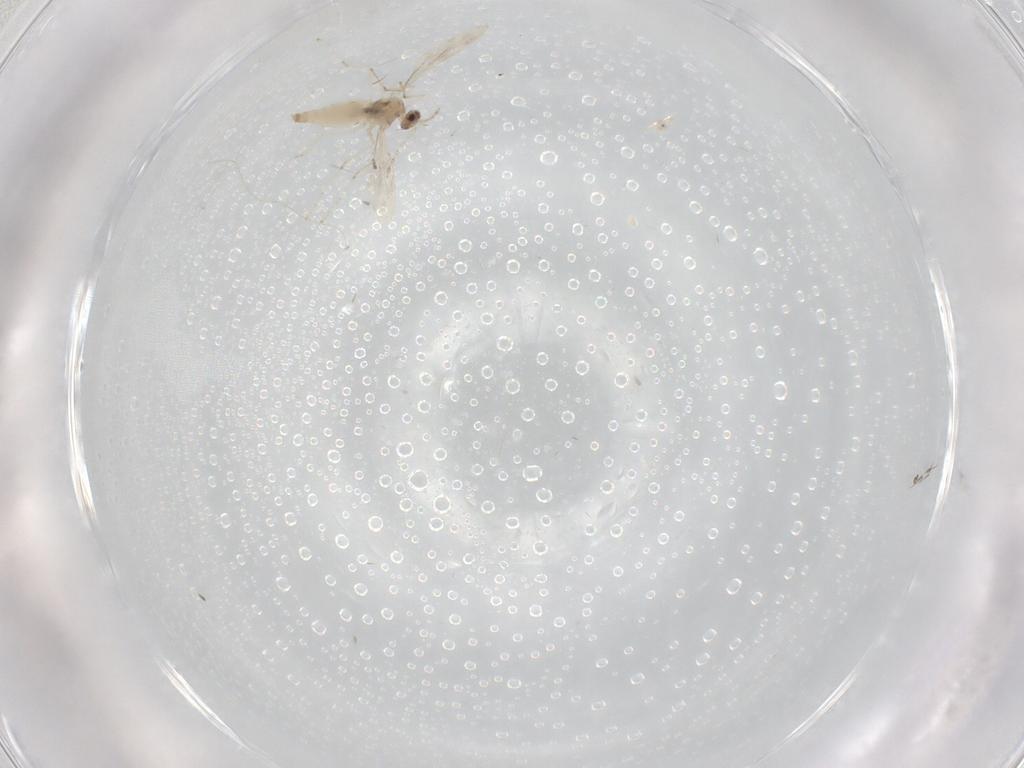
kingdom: Animalia
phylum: Arthropoda
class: Insecta
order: Diptera
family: Cecidomyiidae
